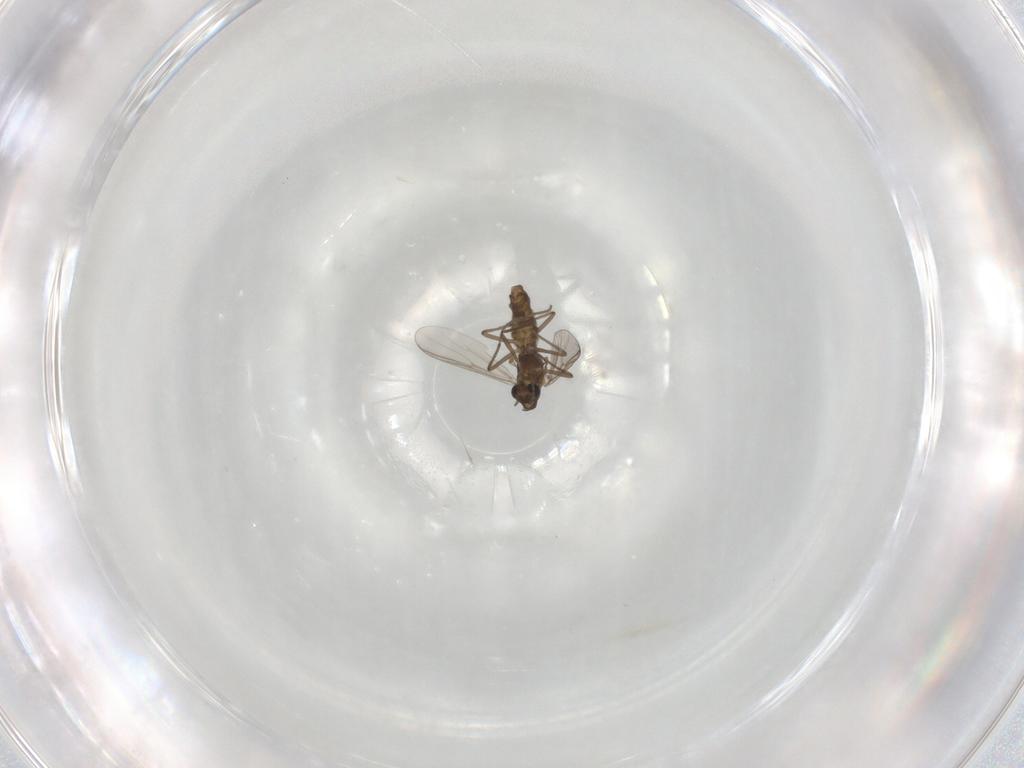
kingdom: Animalia
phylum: Arthropoda
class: Insecta
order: Diptera
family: Chironomidae
